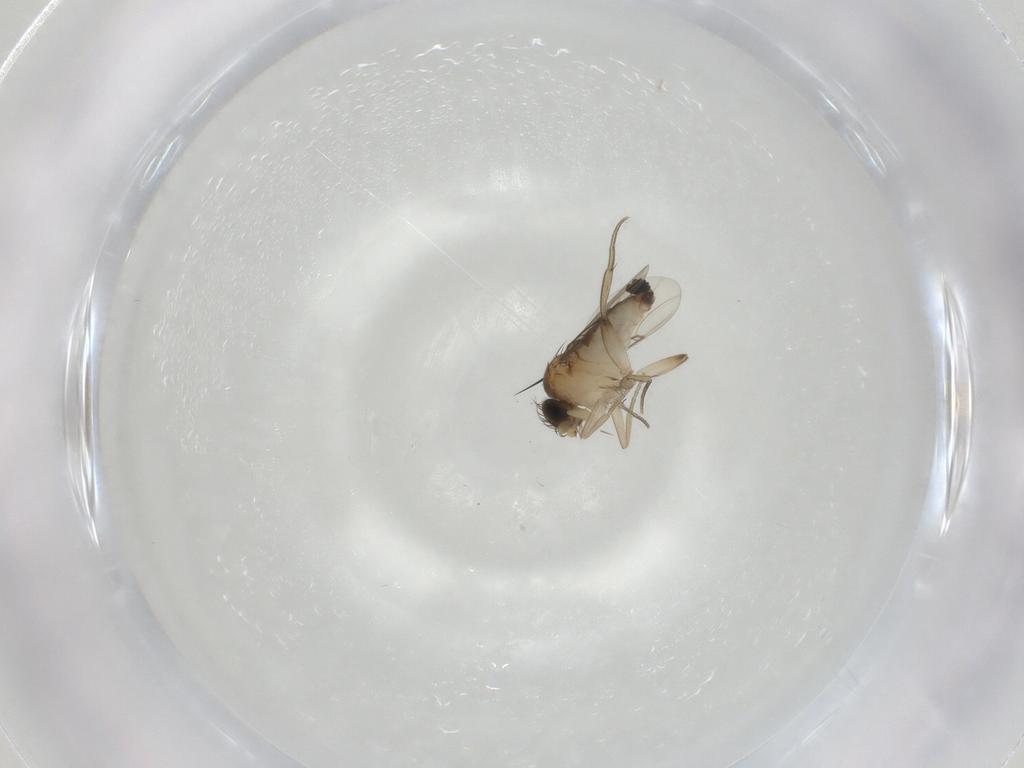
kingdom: Animalia
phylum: Arthropoda
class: Insecta
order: Diptera
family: Phoridae
